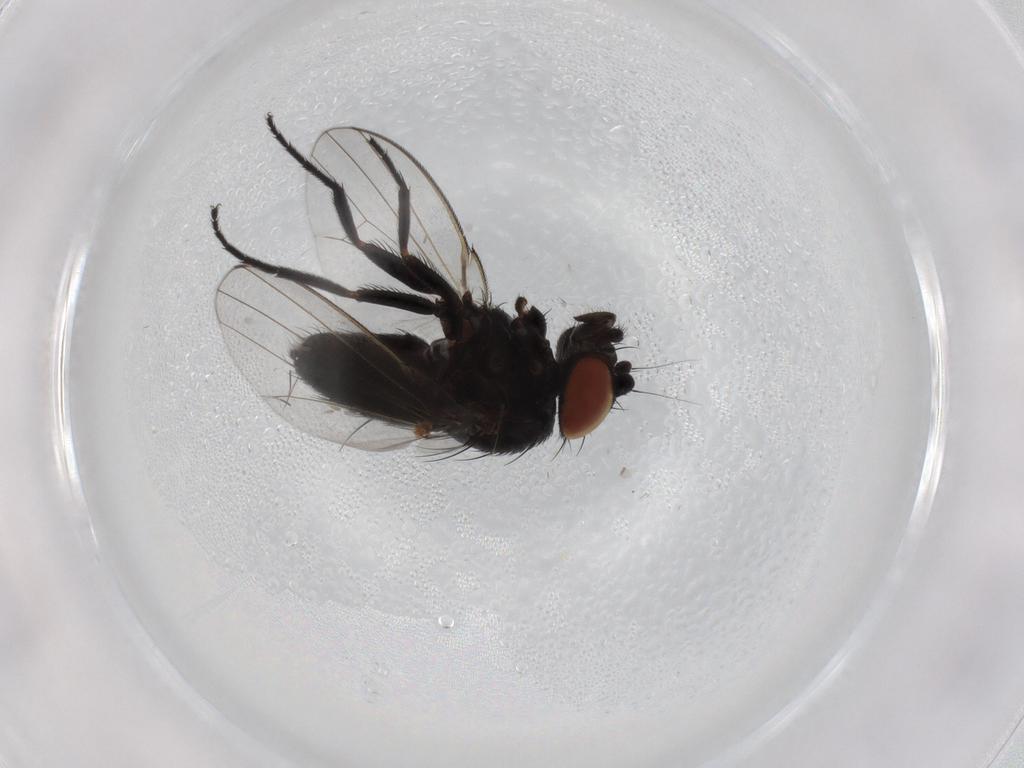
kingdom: Animalia
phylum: Arthropoda
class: Insecta
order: Diptera
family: Milichiidae
